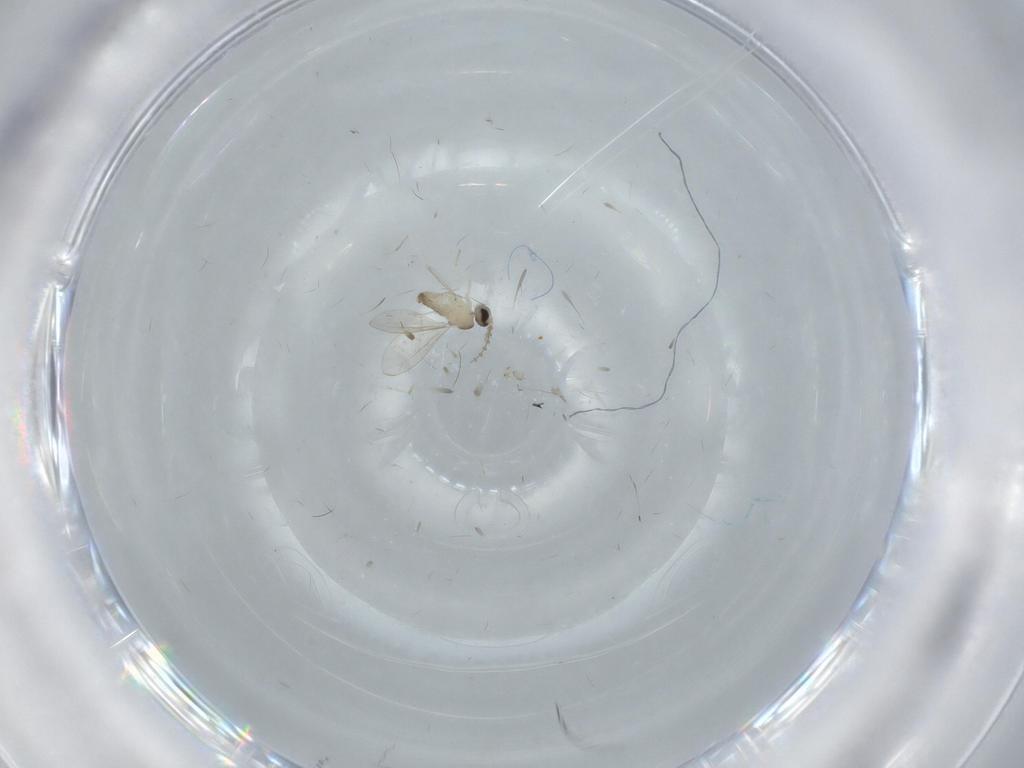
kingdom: Animalia
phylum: Arthropoda
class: Insecta
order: Diptera
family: Cecidomyiidae
